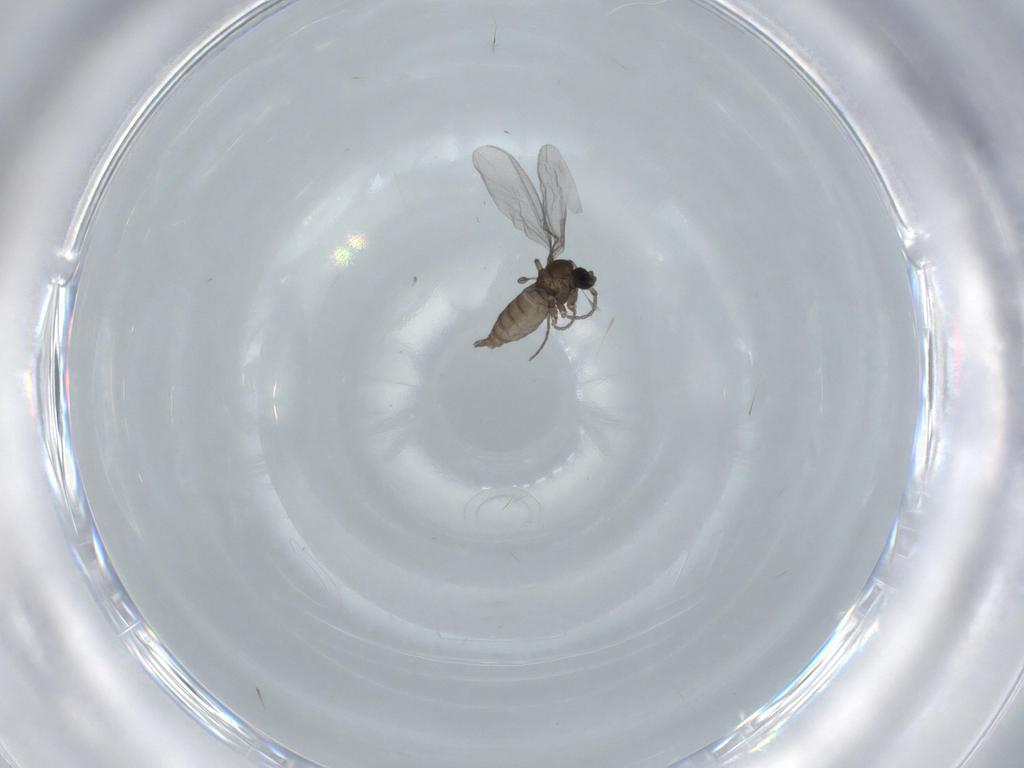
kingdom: Animalia
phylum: Arthropoda
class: Insecta
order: Diptera
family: Sciaridae
